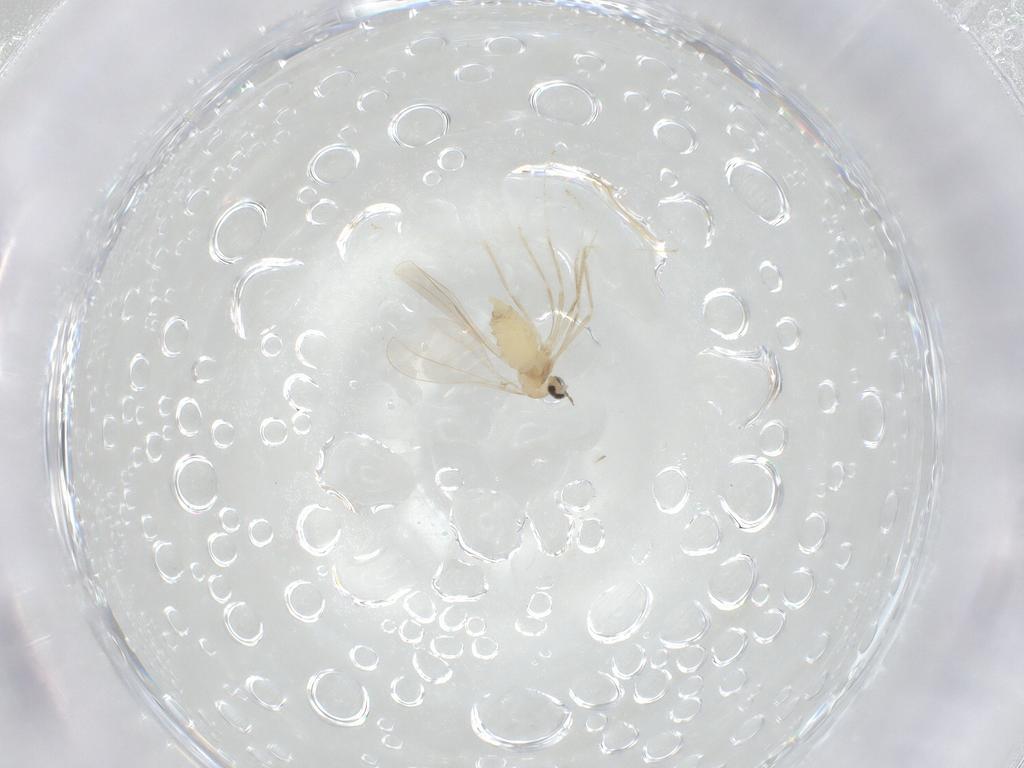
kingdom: Animalia
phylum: Arthropoda
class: Insecta
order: Diptera
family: Cecidomyiidae
